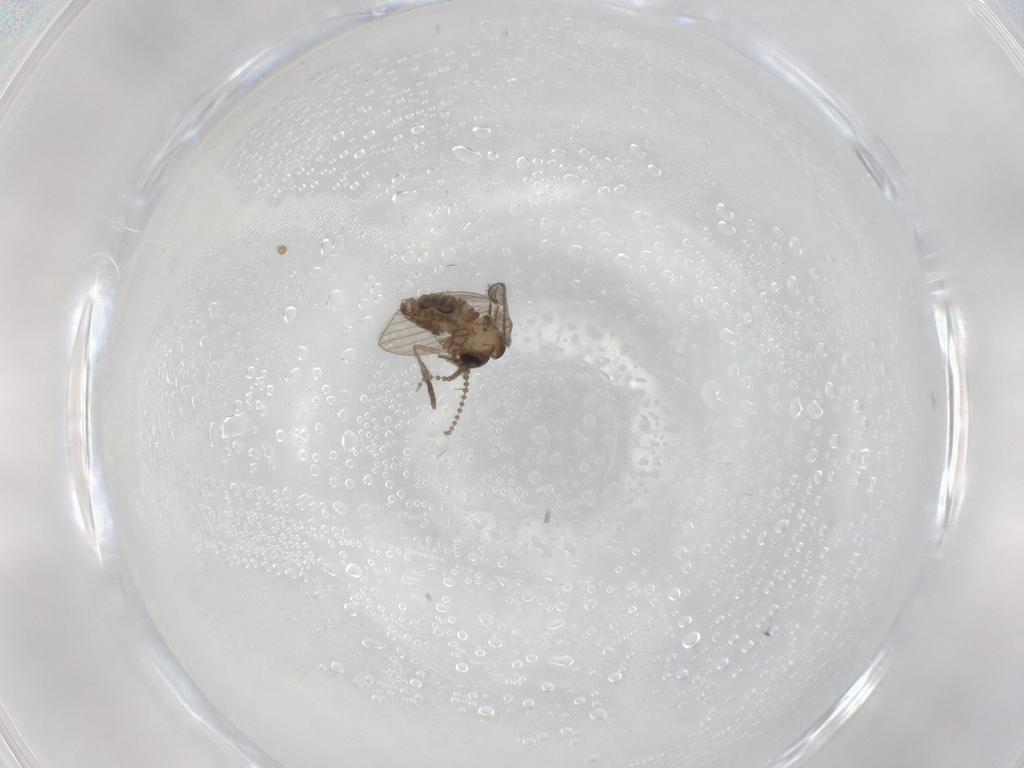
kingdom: Animalia
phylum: Arthropoda
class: Insecta
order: Diptera
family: Psychodidae
